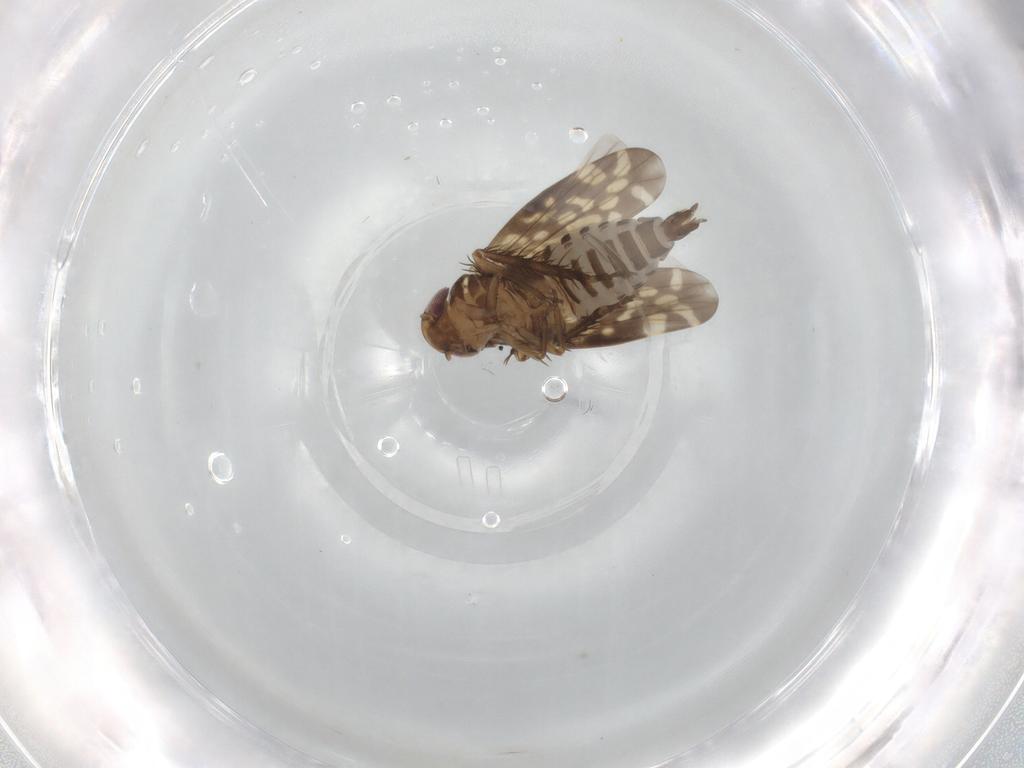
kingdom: Animalia
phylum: Arthropoda
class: Insecta
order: Hemiptera
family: Cicadellidae
